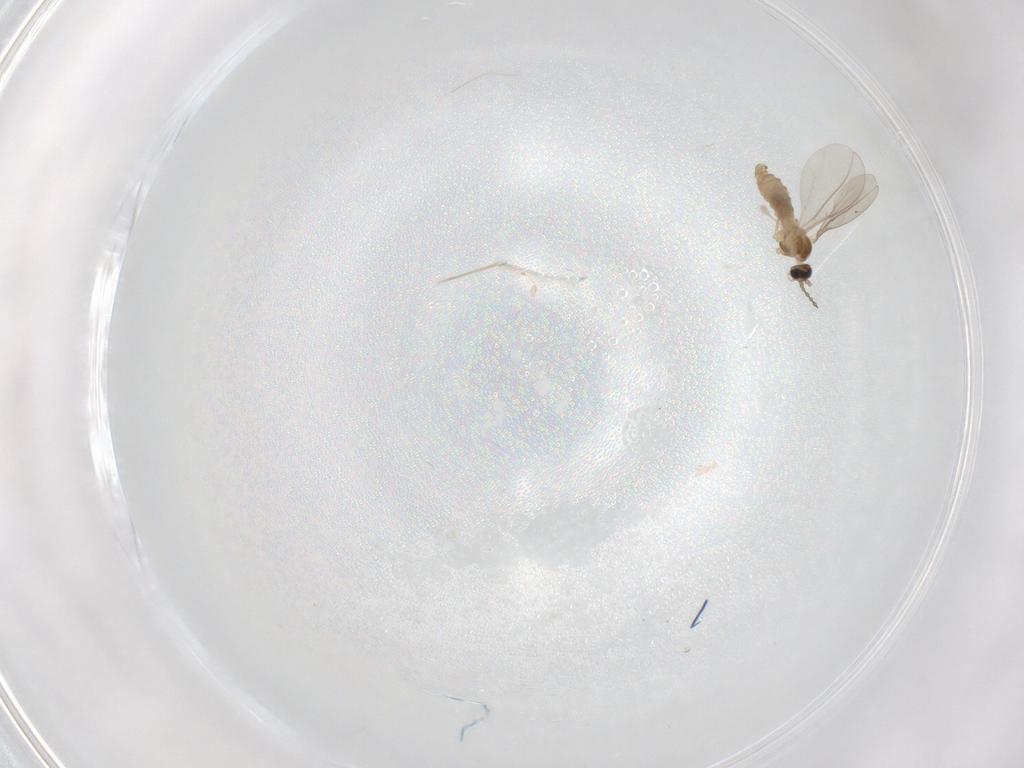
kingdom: Animalia
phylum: Arthropoda
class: Insecta
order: Diptera
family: Cecidomyiidae
